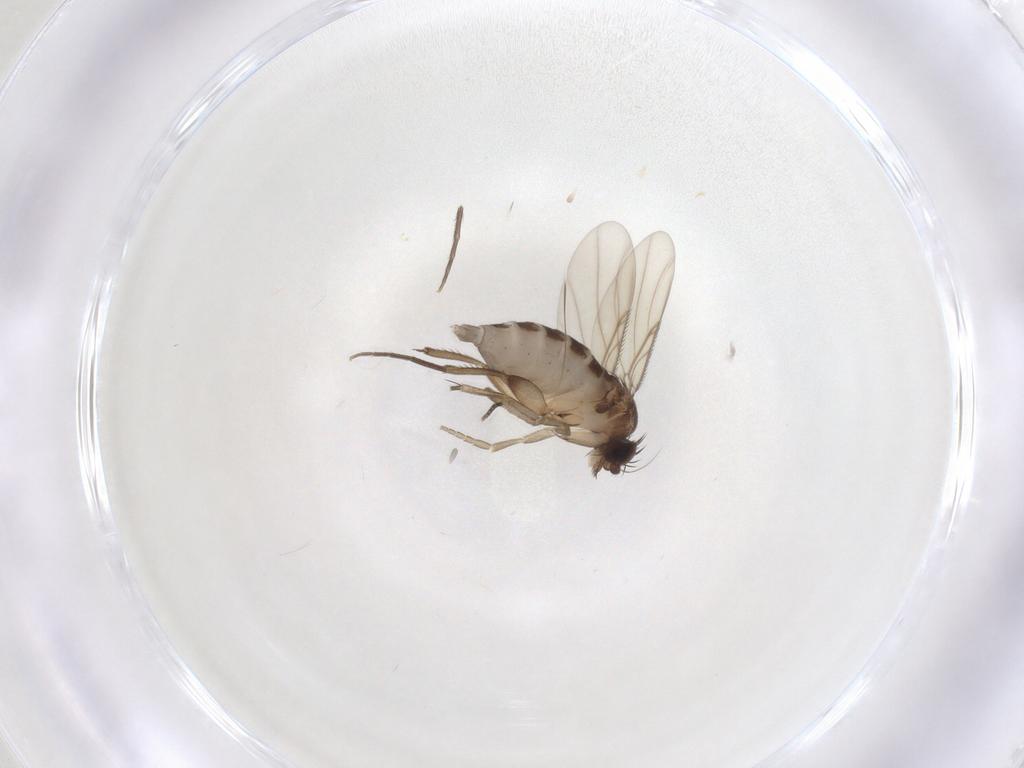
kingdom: Animalia
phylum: Arthropoda
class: Insecta
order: Diptera
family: Phoridae
